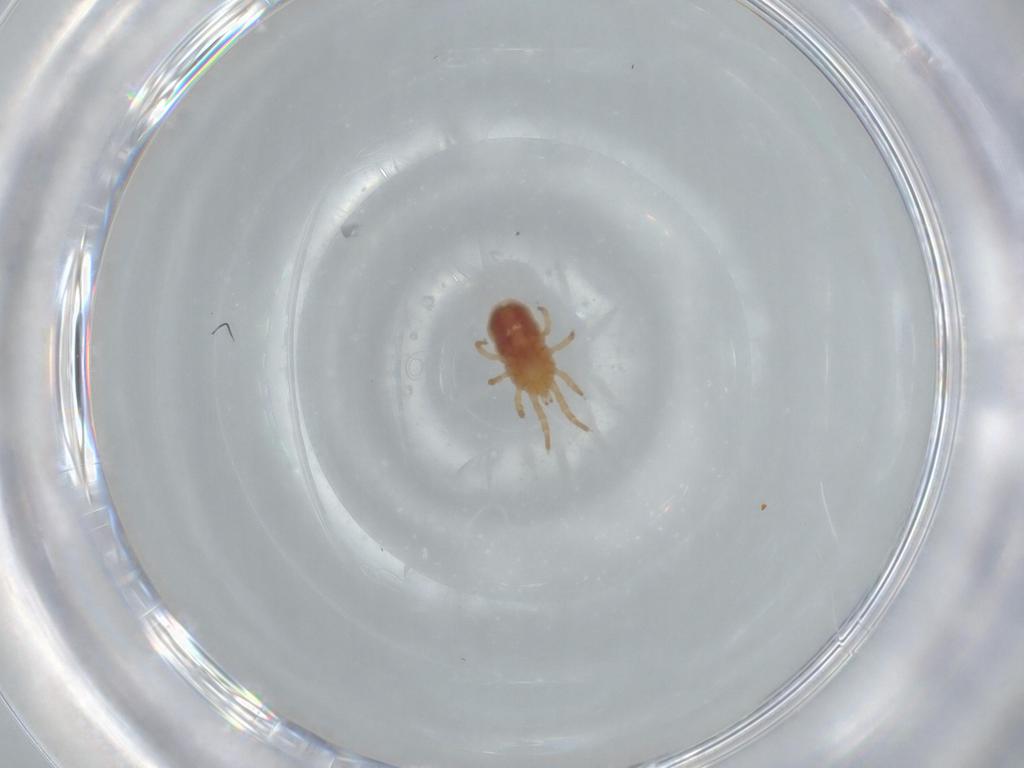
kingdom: Animalia
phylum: Arthropoda
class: Arachnida
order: Mesostigmata
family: Dermanyssidae
